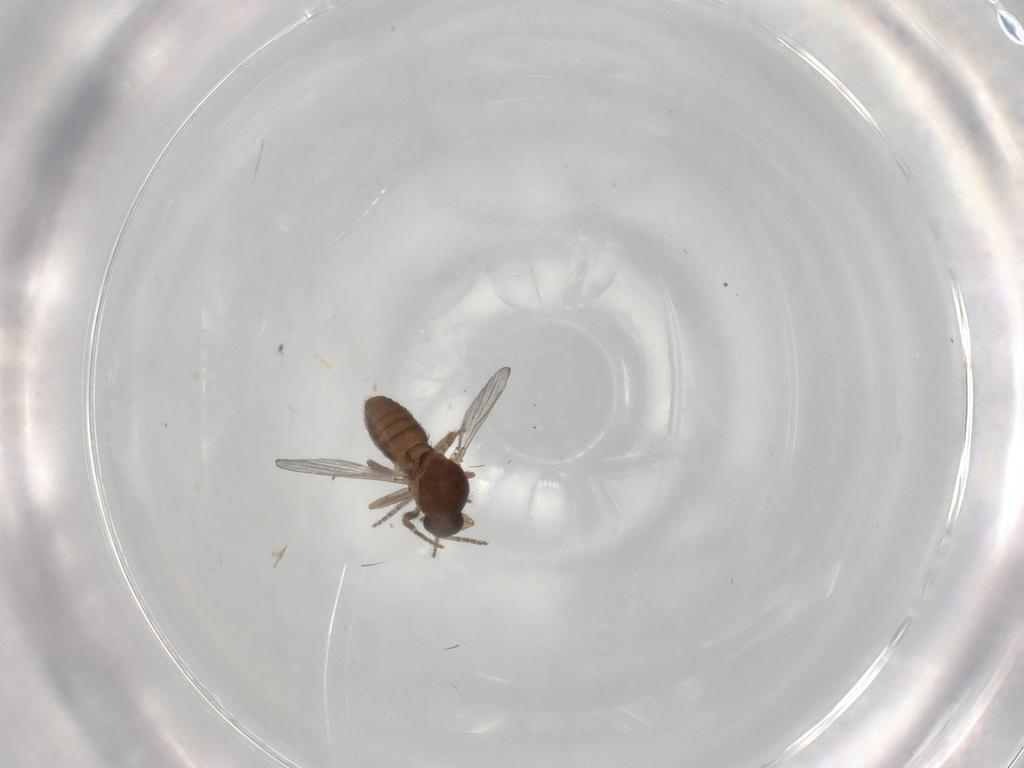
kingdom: Animalia
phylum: Arthropoda
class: Insecta
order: Diptera
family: Ceratopogonidae
